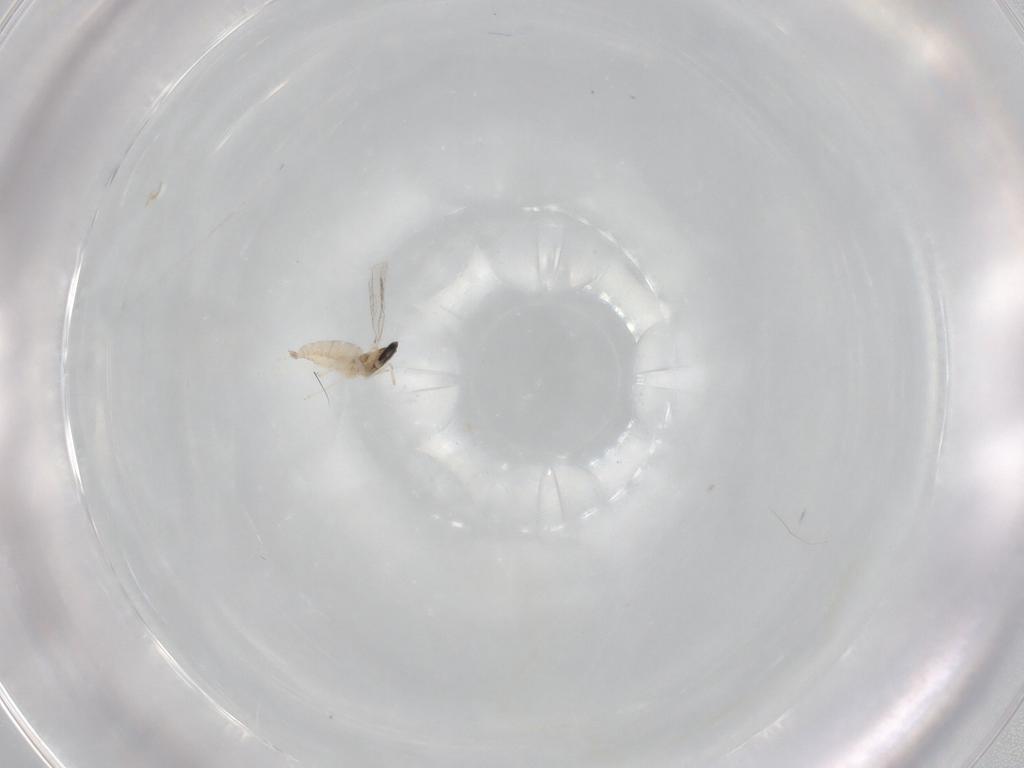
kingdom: Animalia
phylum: Arthropoda
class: Insecta
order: Diptera
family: Cecidomyiidae
